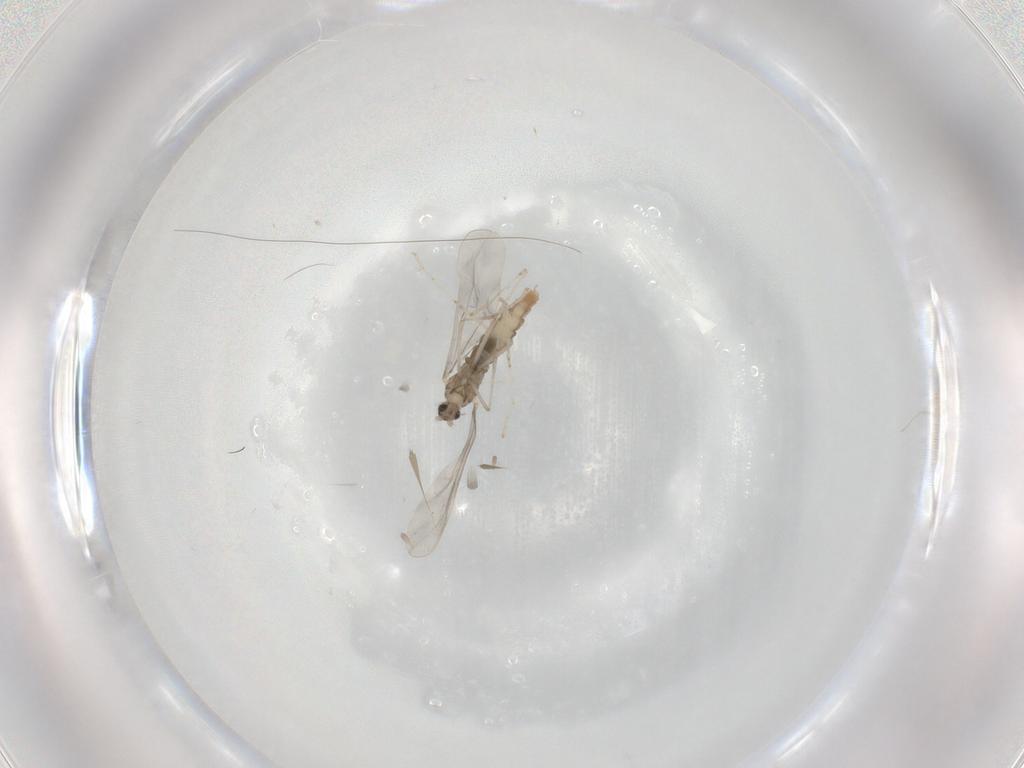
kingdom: Animalia
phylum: Arthropoda
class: Insecta
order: Diptera
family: Cecidomyiidae
